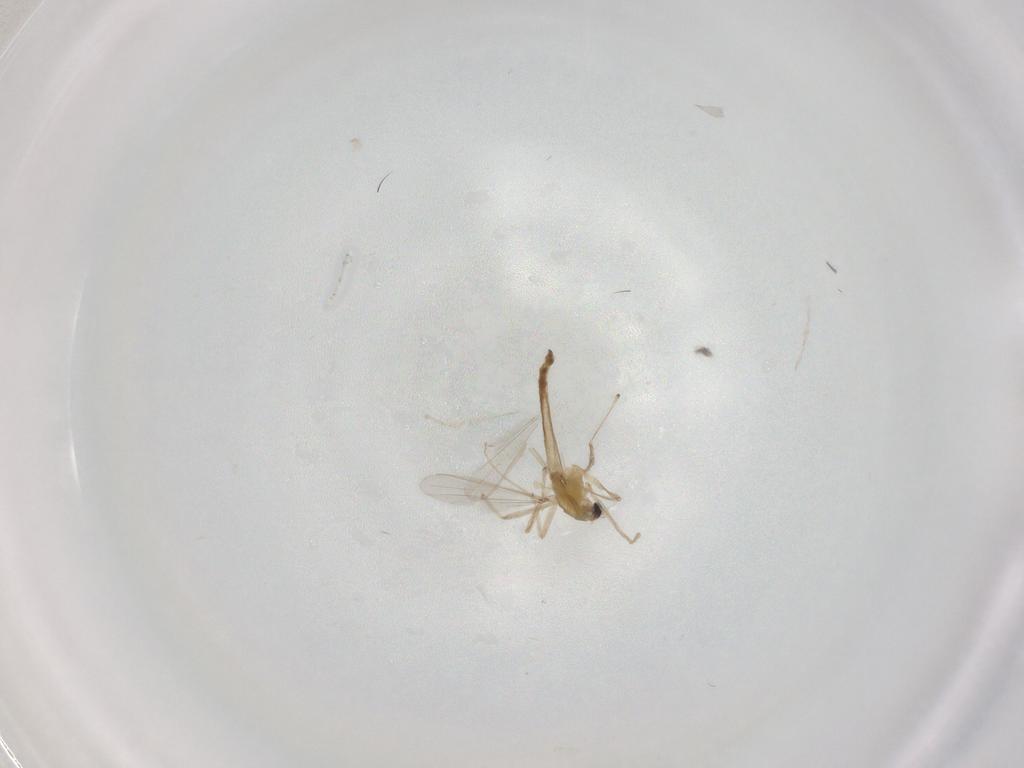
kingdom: Animalia
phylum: Arthropoda
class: Insecta
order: Diptera
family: Chironomidae
